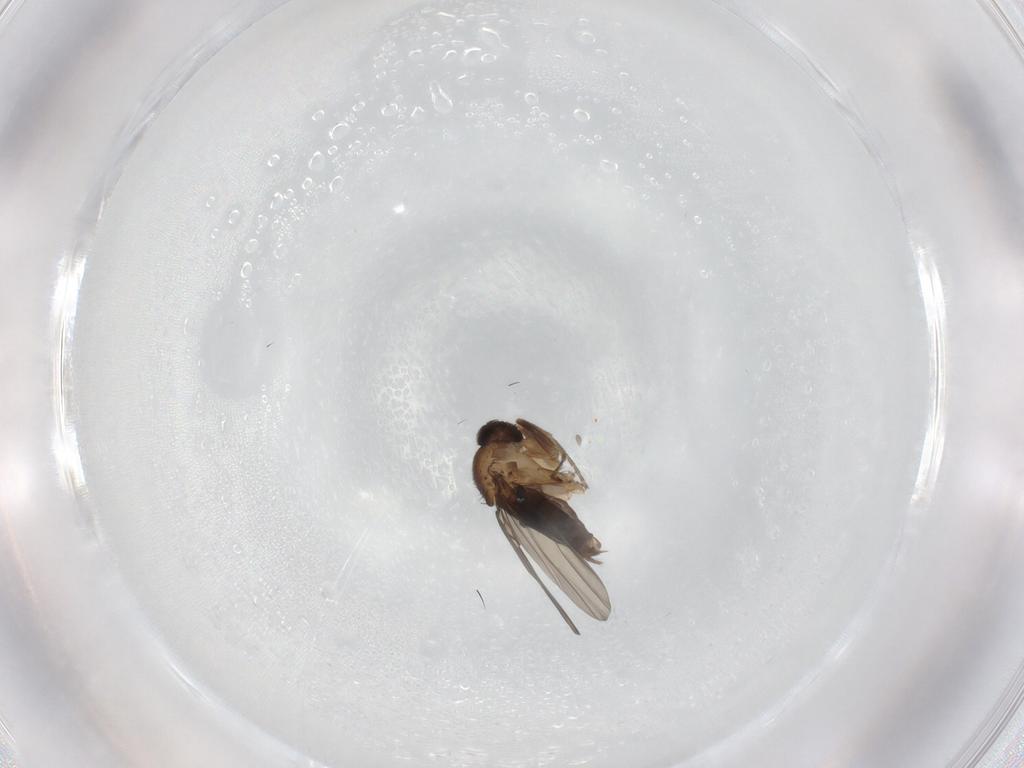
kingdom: Animalia
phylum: Arthropoda
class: Insecta
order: Diptera
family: Phoridae
